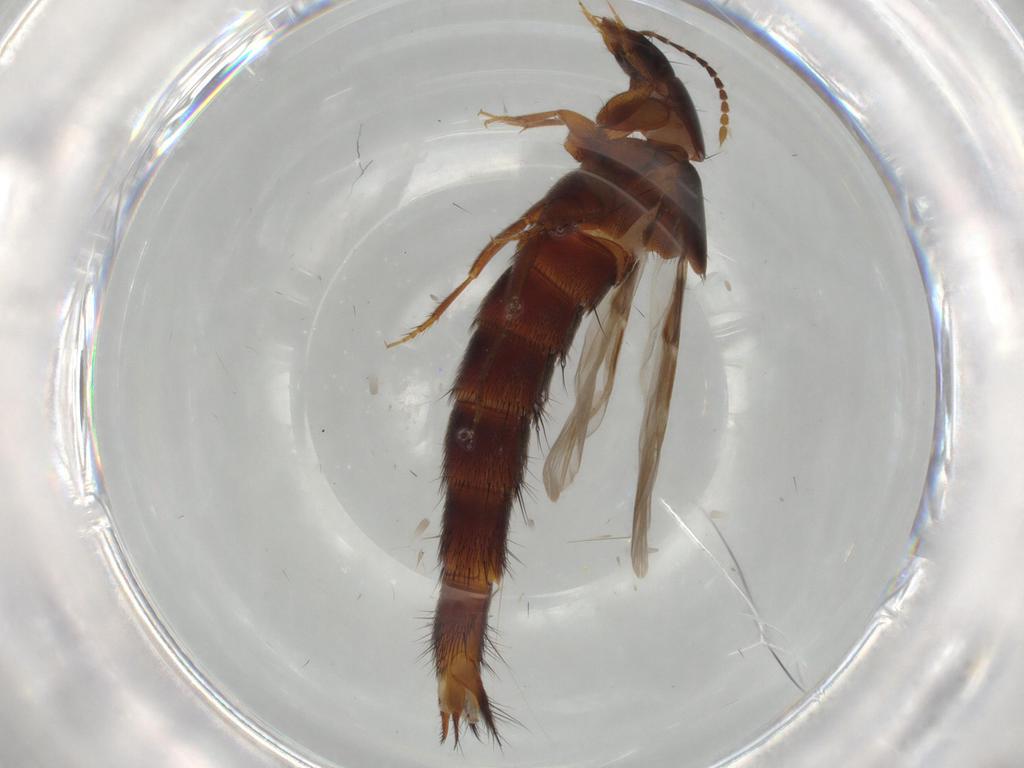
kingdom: Animalia
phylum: Arthropoda
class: Insecta
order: Coleoptera
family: Staphylinidae
